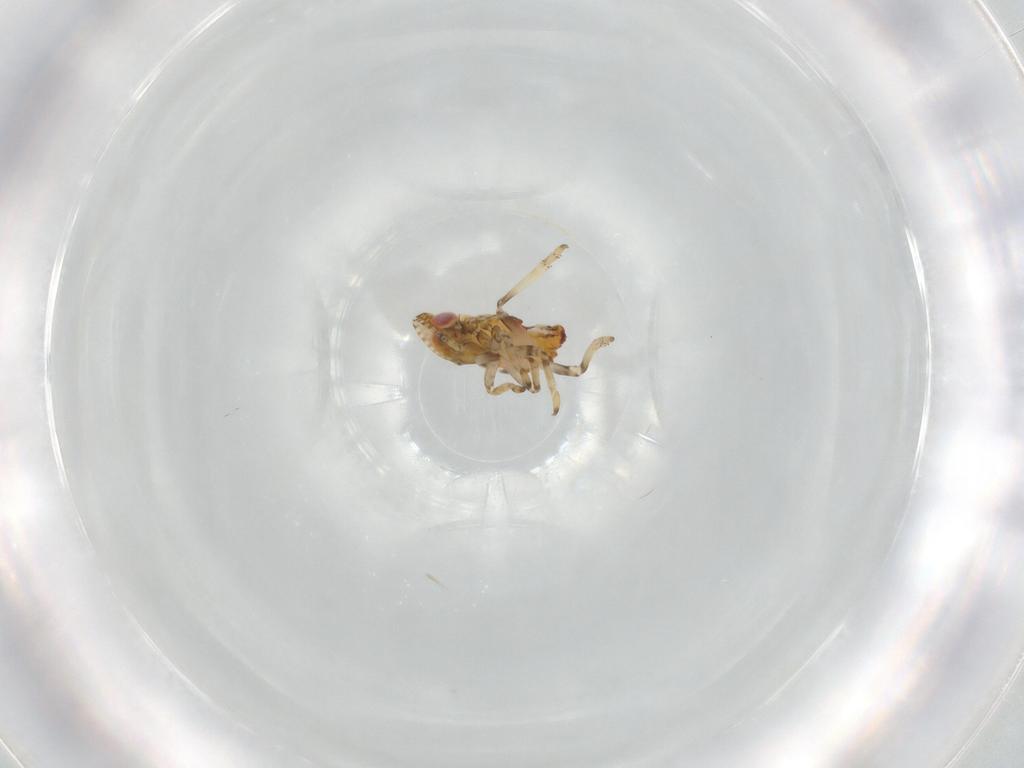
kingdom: Animalia
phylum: Arthropoda
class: Insecta
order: Hemiptera
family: Tropiduchidae
